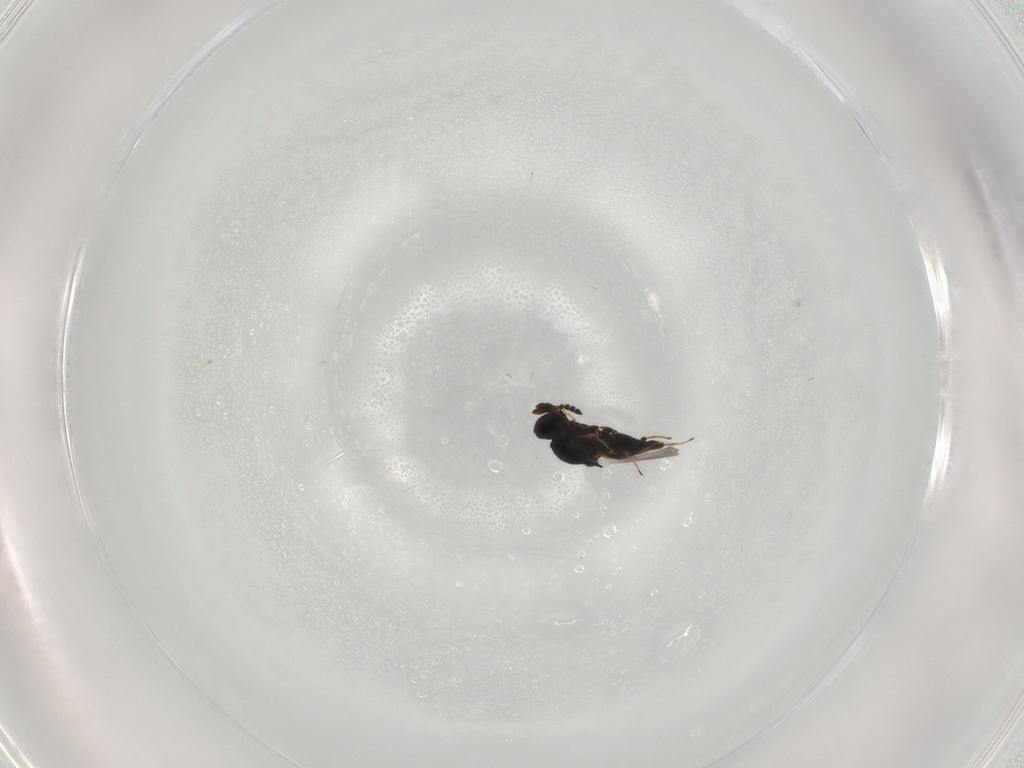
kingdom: Animalia
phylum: Arthropoda
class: Insecta
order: Hymenoptera
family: Platygastridae
